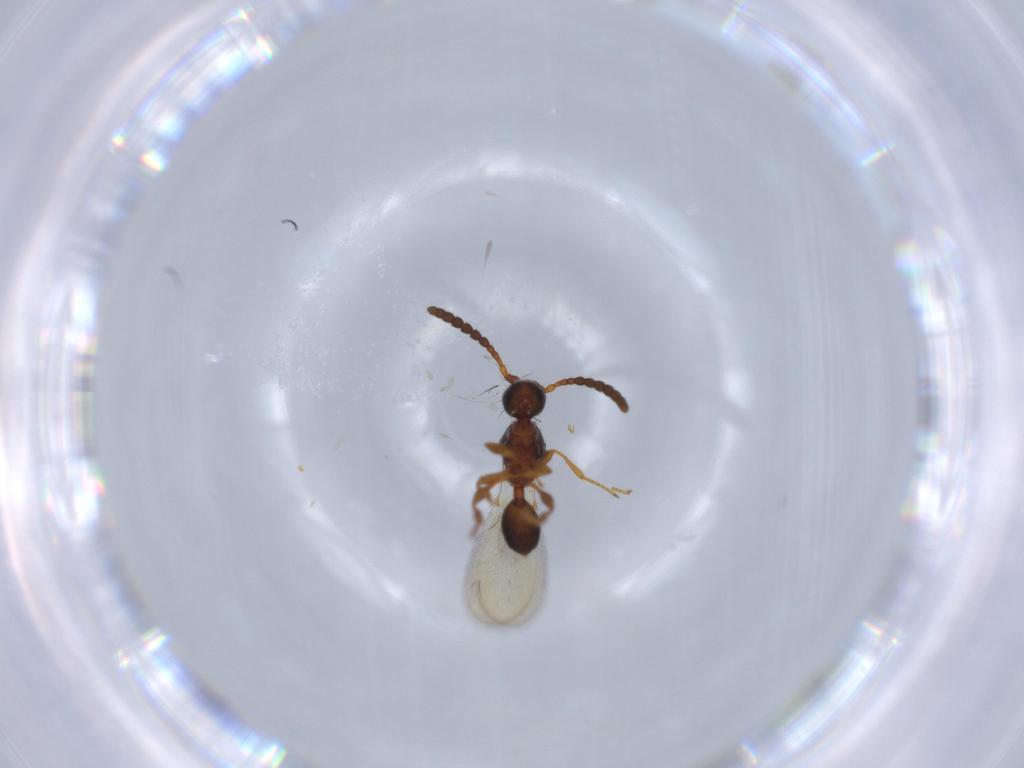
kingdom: Animalia
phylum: Arthropoda
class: Insecta
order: Hymenoptera
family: Diapriidae
